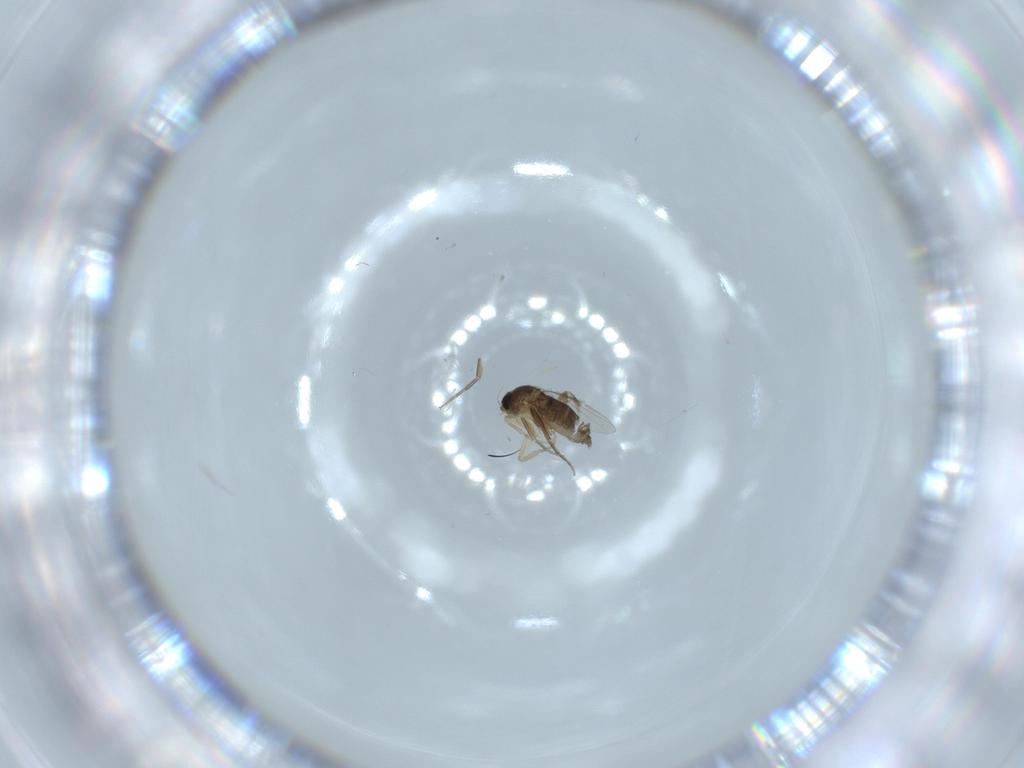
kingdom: Animalia
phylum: Arthropoda
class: Insecta
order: Diptera
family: Phoridae
